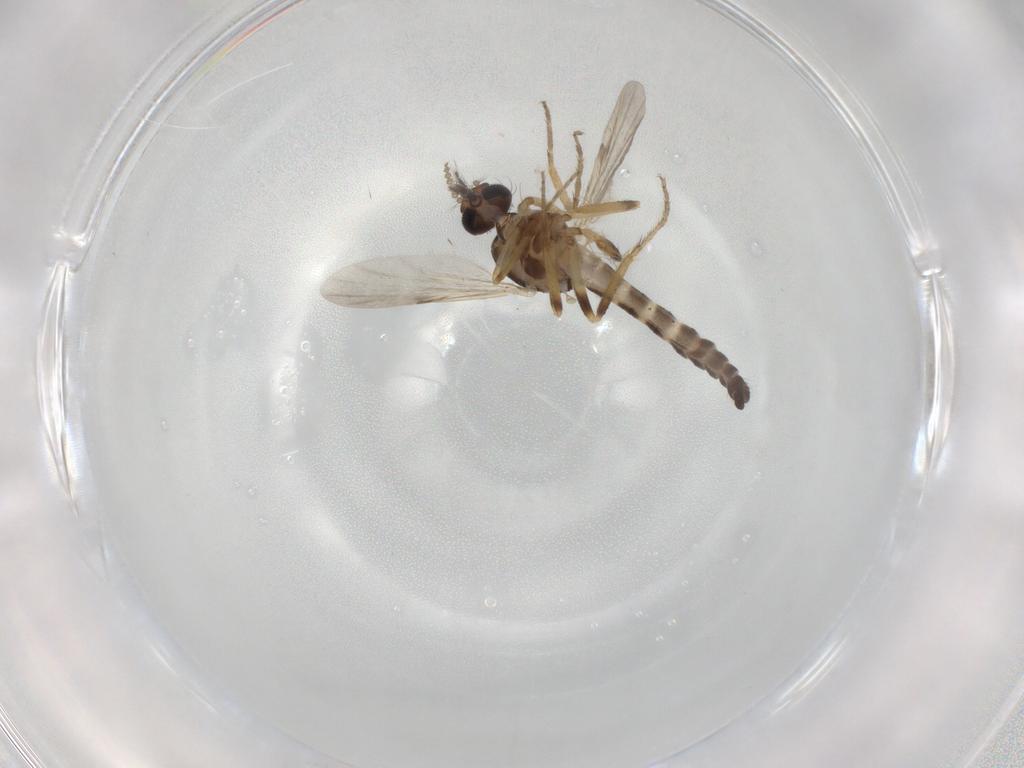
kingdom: Animalia
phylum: Arthropoda
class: Insecta
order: Diptera
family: Ceratopogonidae
